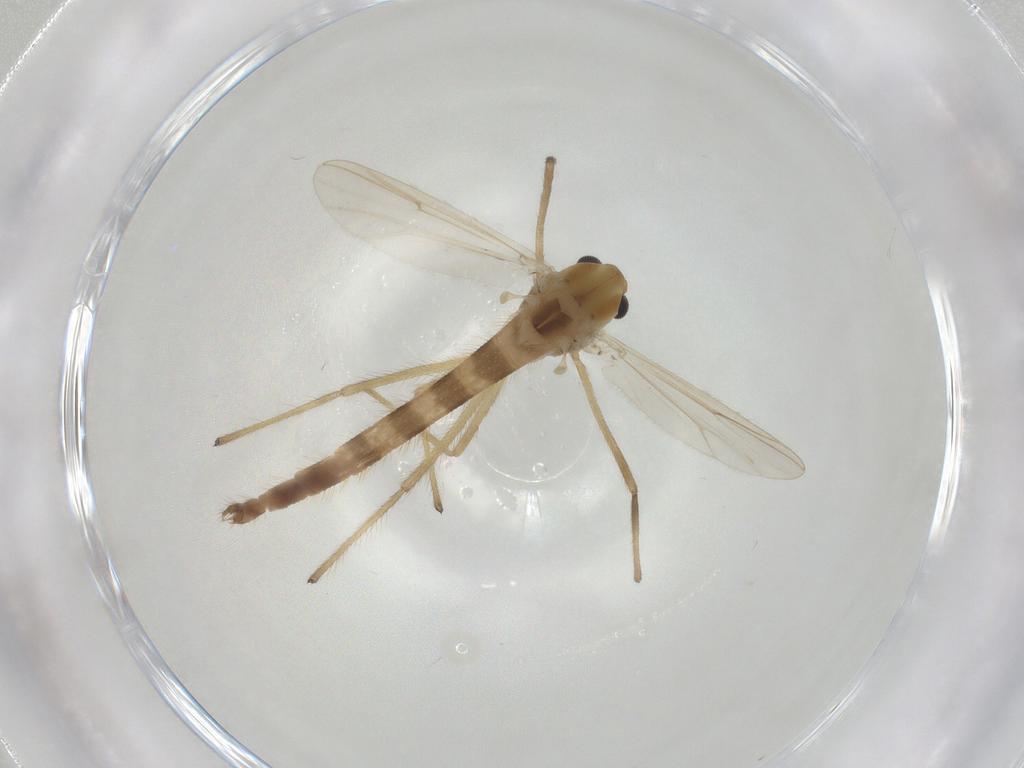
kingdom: Animalia
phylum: Arthropoda
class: Insecta
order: Diptera
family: Chironomidae
